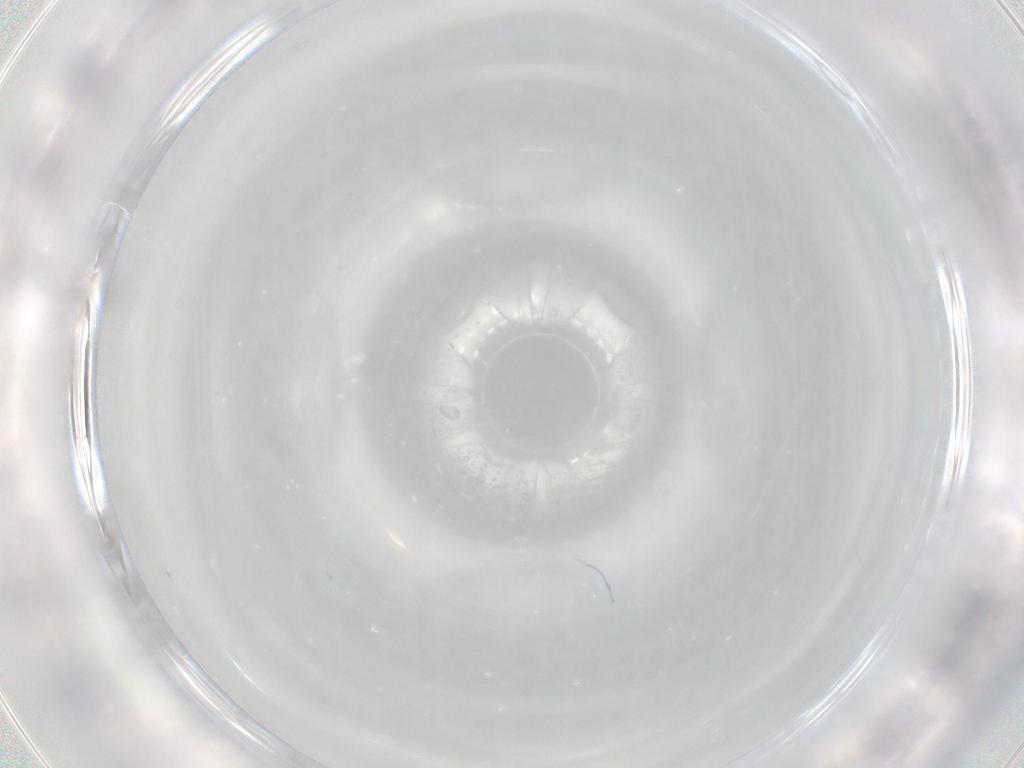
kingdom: Animalia
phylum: Arthropoda
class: Collembola
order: Entomobryomorpha
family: Entomobryidae
